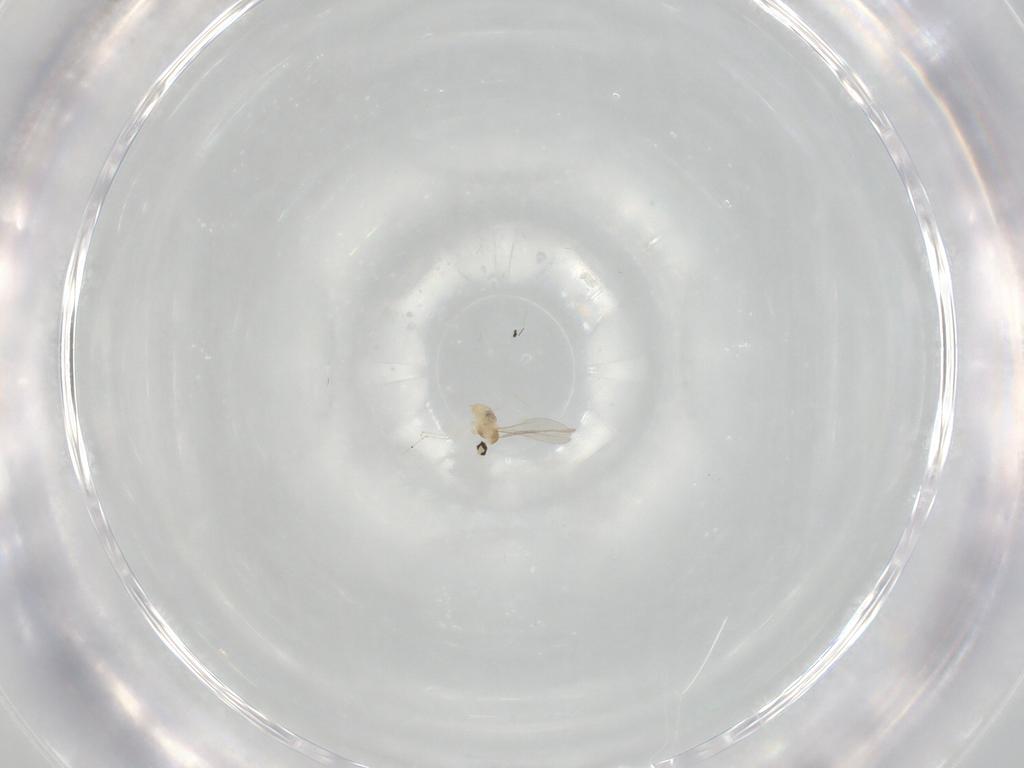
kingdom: Animalia
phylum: Arthropoda
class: Insecta
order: Diptera
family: Cecidomyiidae
